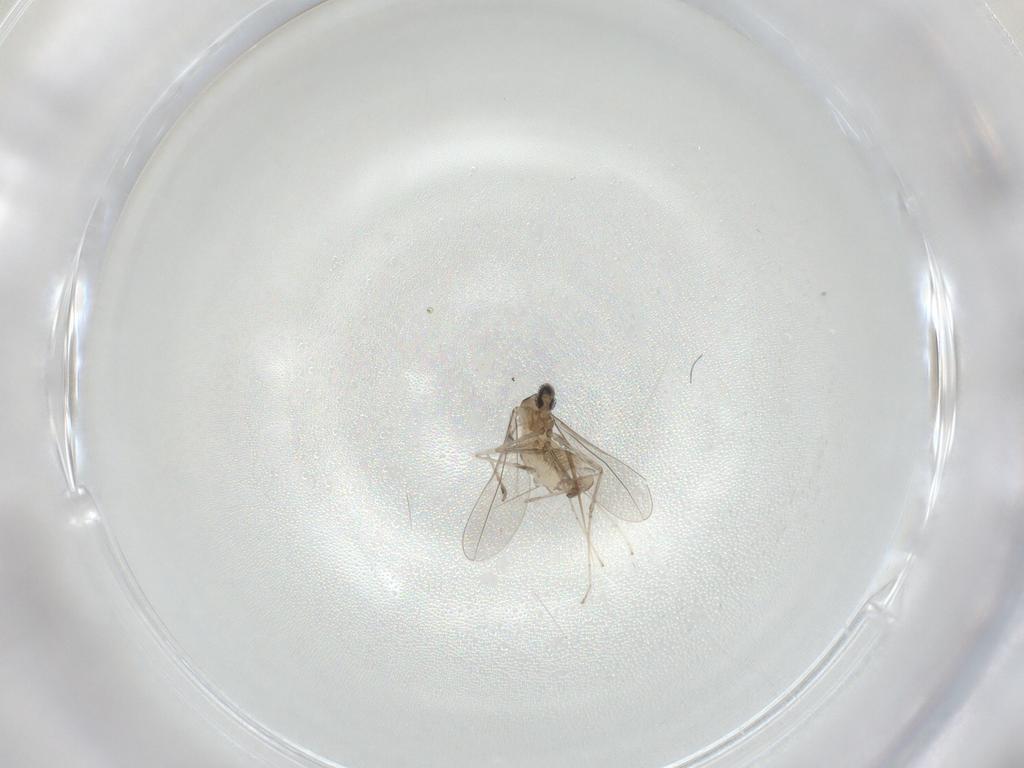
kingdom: Animalia
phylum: Arthropoda
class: Insecta
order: Diptera
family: Cecidomyiidae
